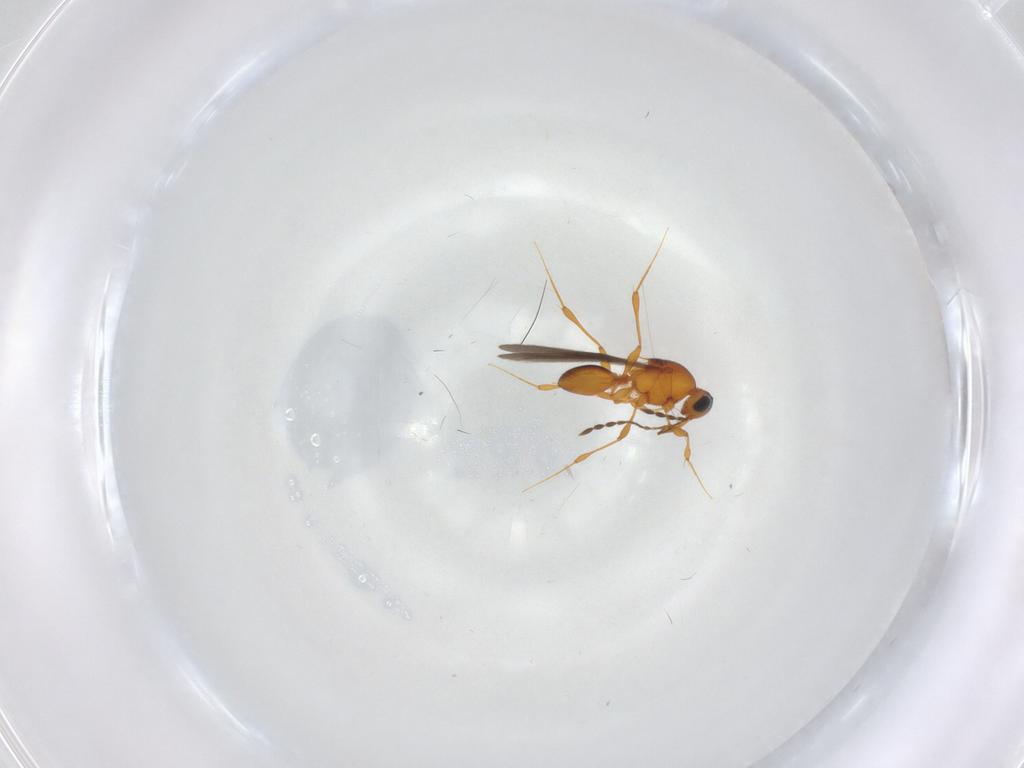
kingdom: Animalia
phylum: Arthropoda
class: Insecta
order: Hymenoptera
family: Platygastridae
